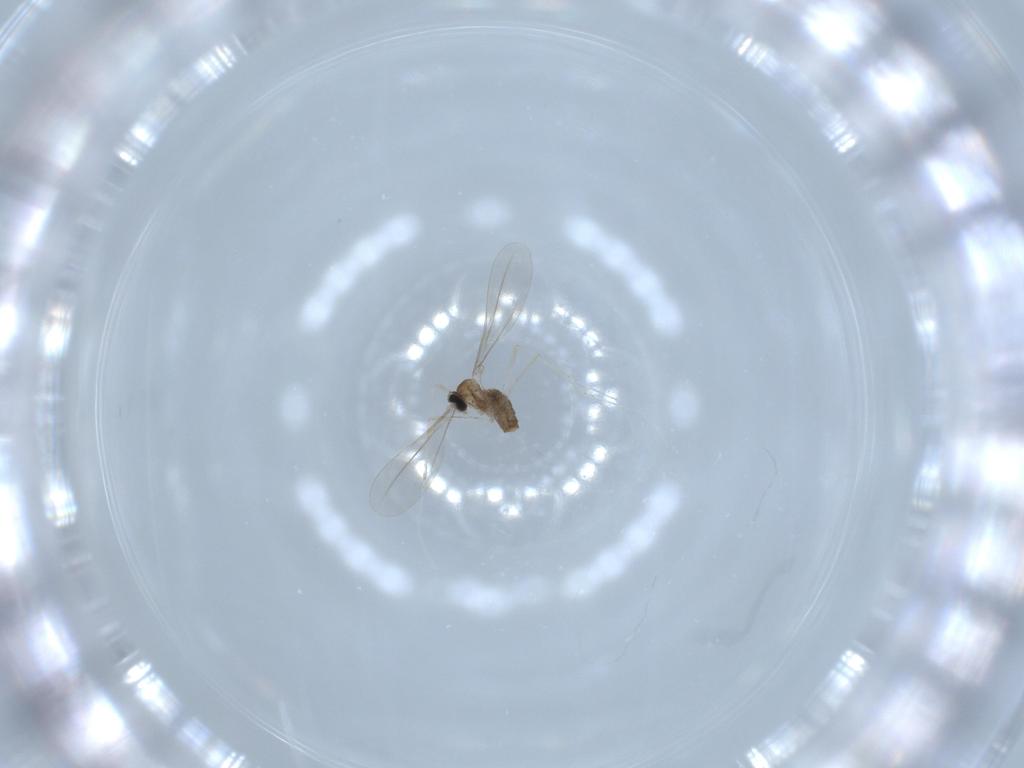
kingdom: Animalia
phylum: Arthropoda
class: Insecta
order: Diptera
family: Cecidomyiidae
